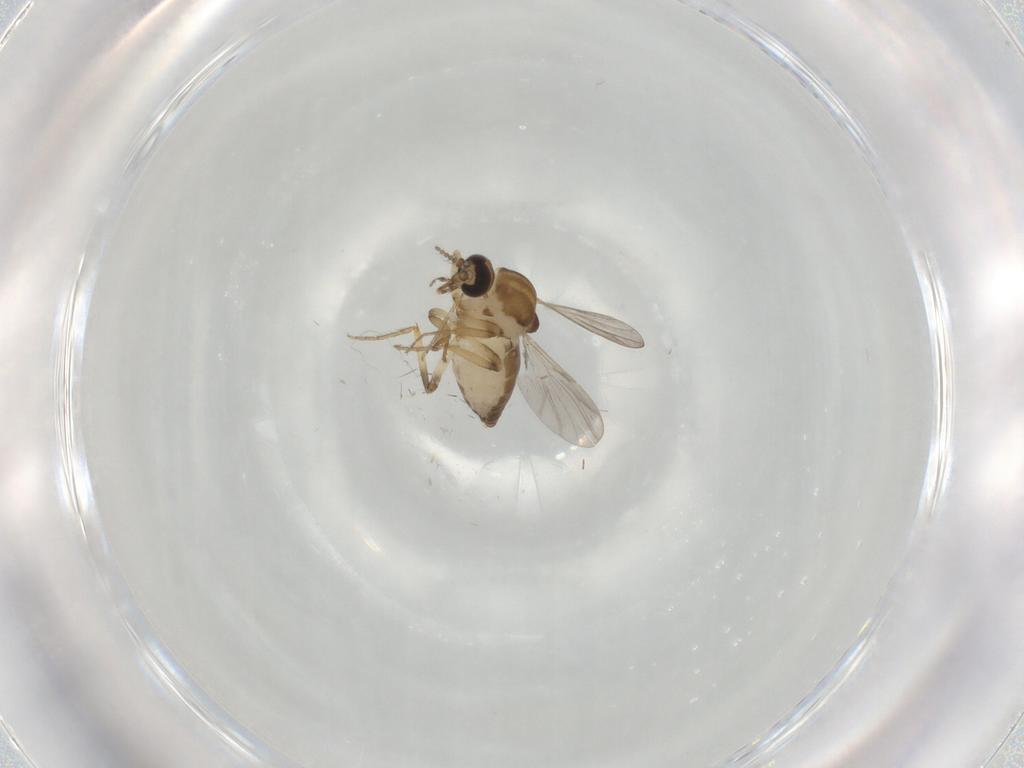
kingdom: Animalia
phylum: Arthropoda
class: Insecta
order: Diptera
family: Ceratopogonidae
